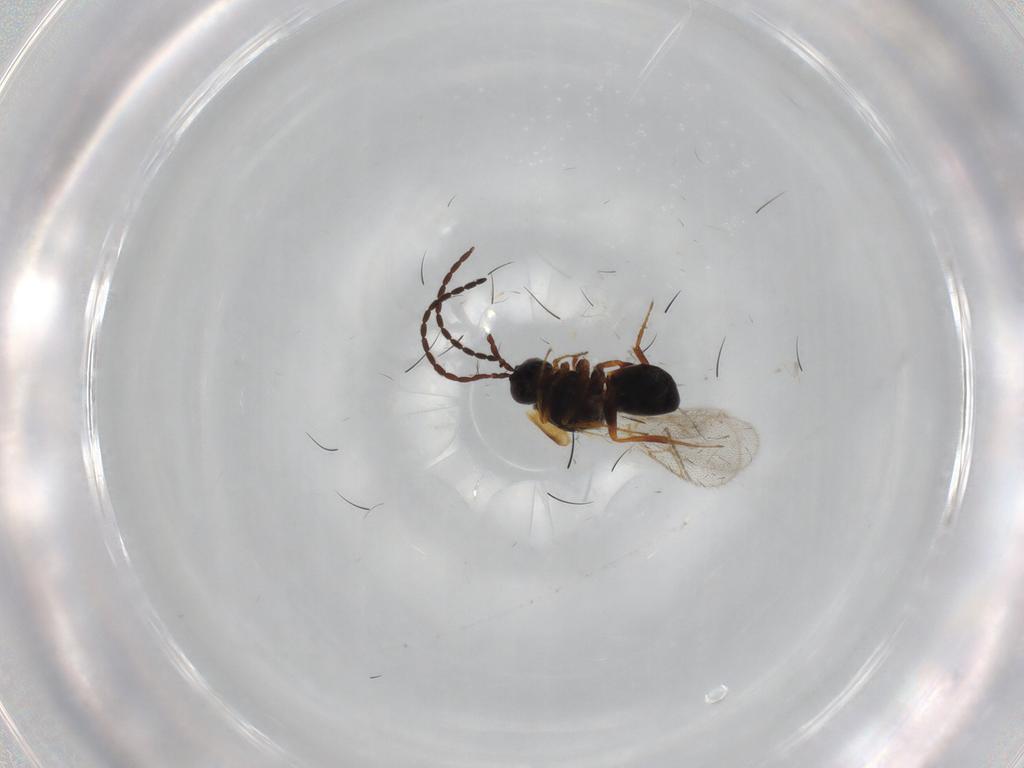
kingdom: Animalia
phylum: Arthropoda
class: Insecta
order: Hymenoptera
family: Figitidae
